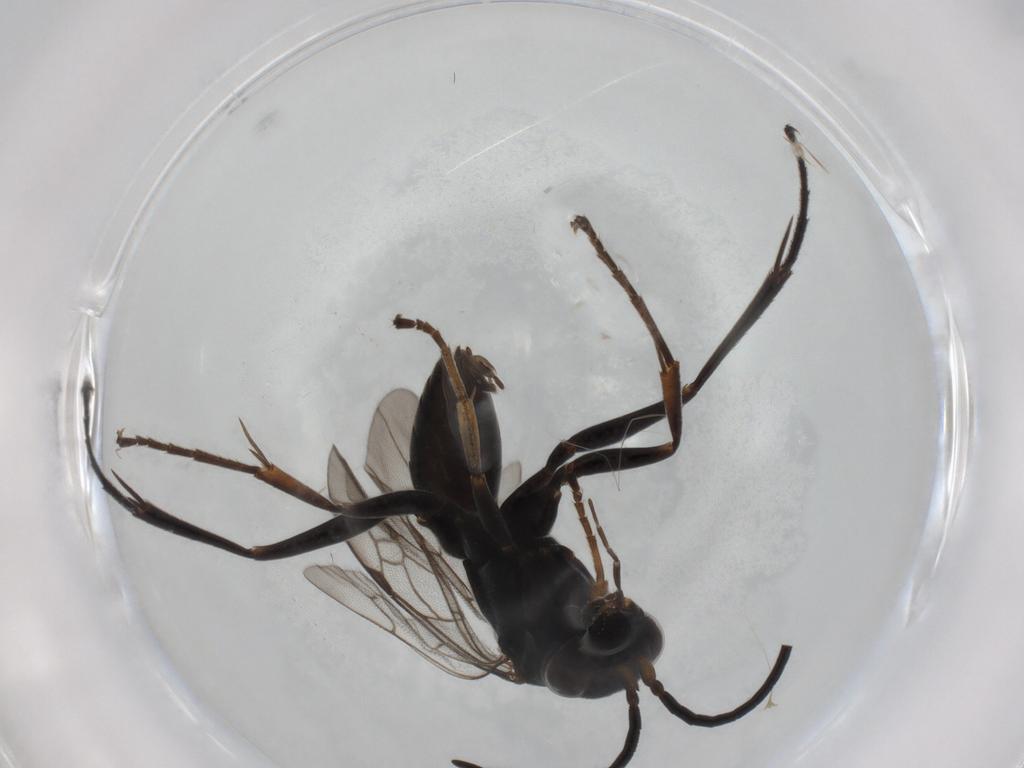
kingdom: Animalia
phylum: Arthropoda
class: Insecta
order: Hymenoptera
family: Pompilidae
